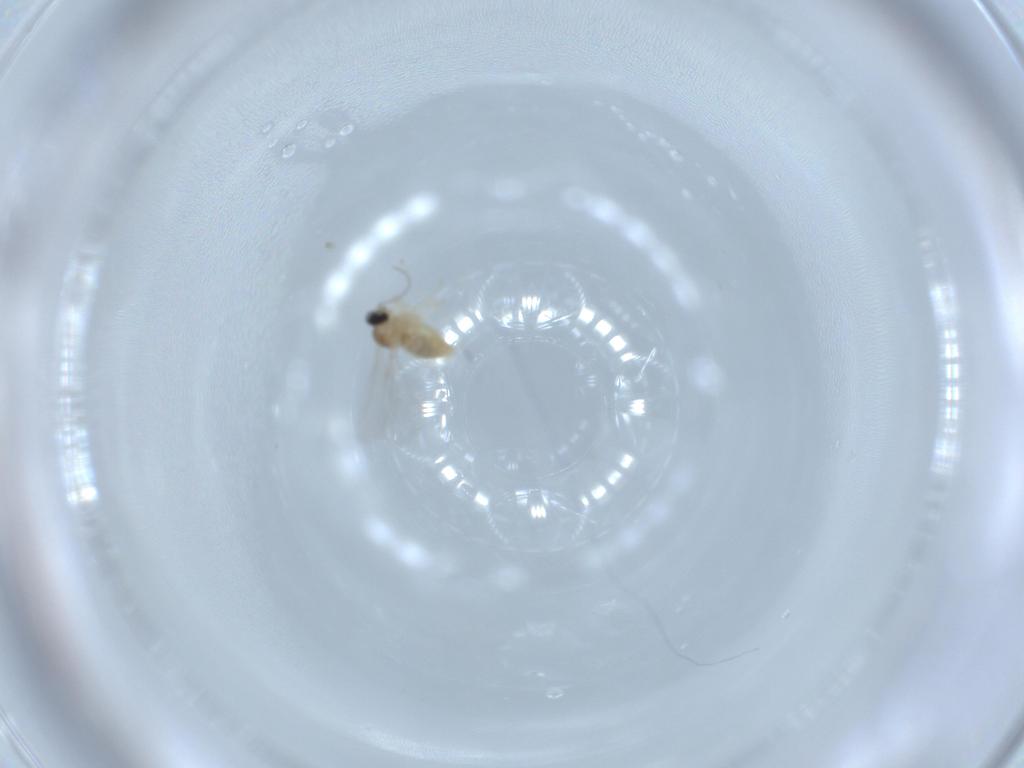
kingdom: Animalia
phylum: Arthropoda
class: Insecta
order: Diptera
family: Cecidomyiidae
